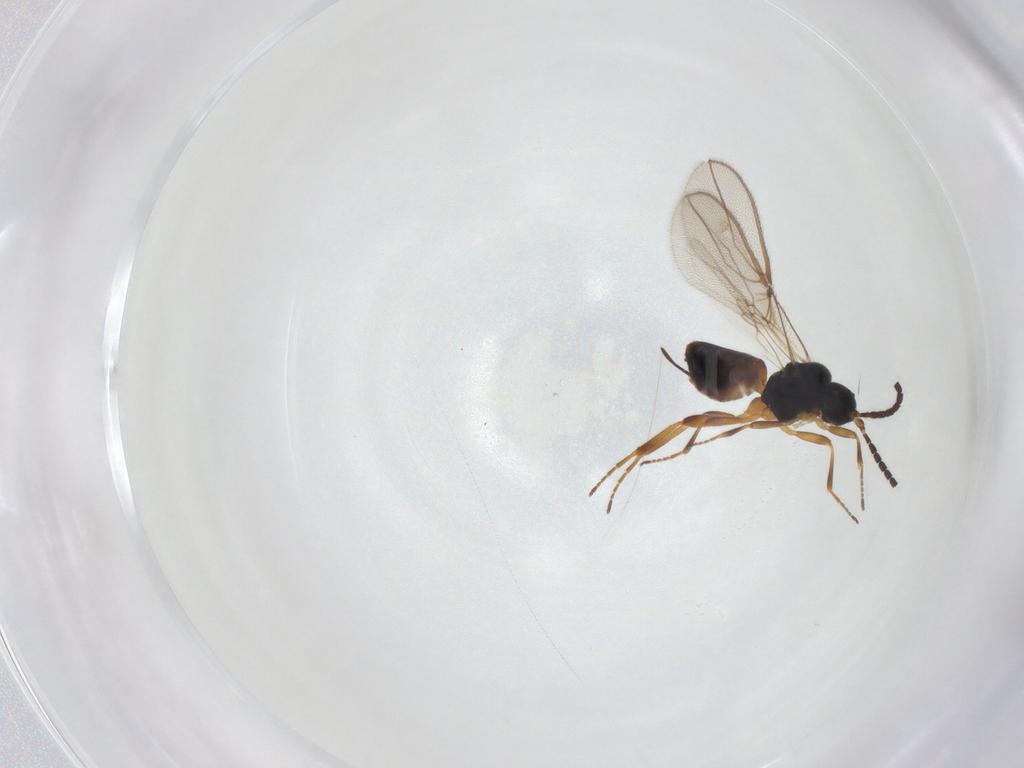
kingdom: Animalia
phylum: Arthropoda
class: Insecta
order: Hymenoptera
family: Braconidae
